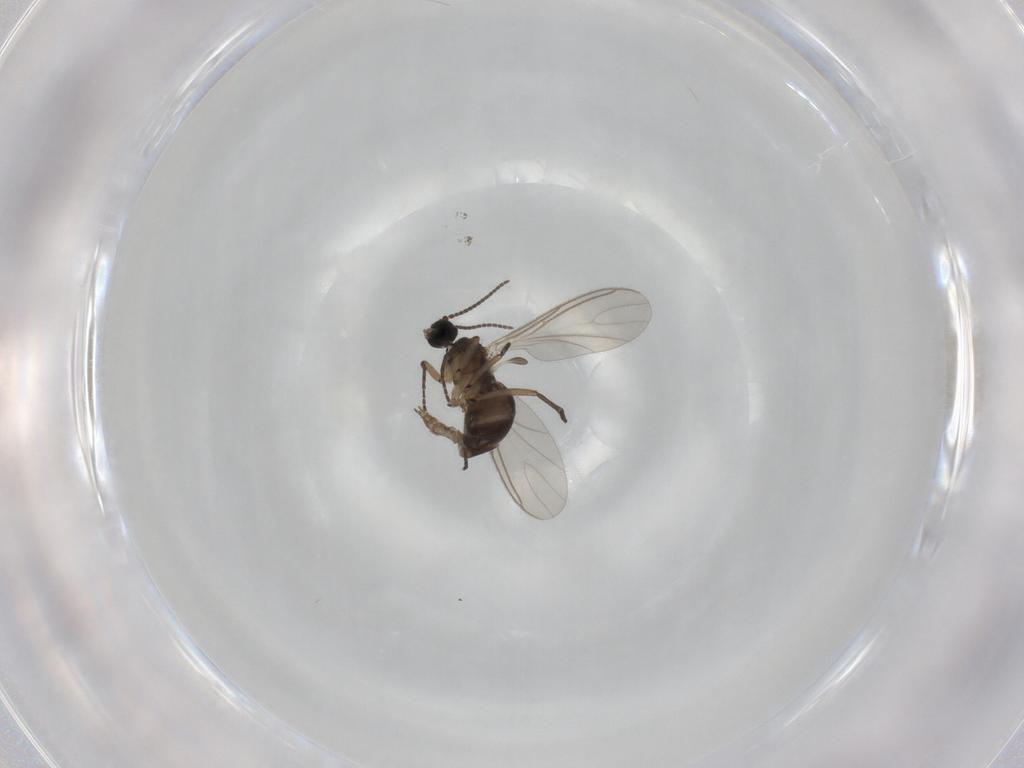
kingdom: Animalia
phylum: Arthropoda
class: Insecta
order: Diptera
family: Sciaridae
